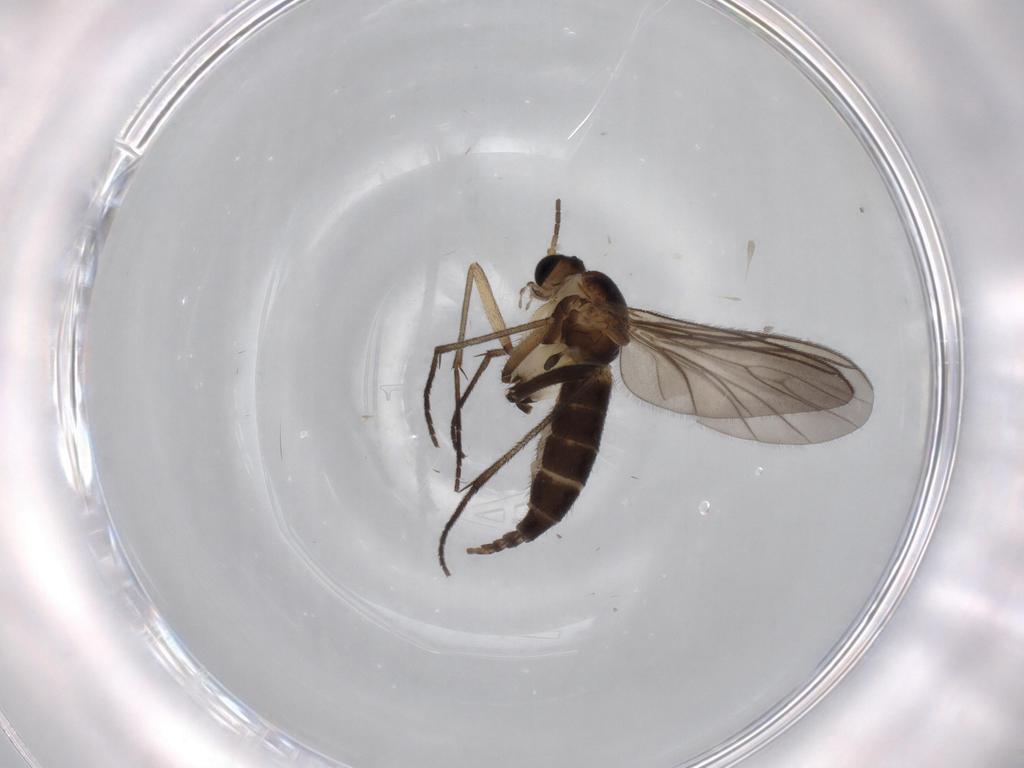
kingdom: Animalia
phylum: Arthropoda
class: Insecta
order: Diptera
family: Sciaridae
